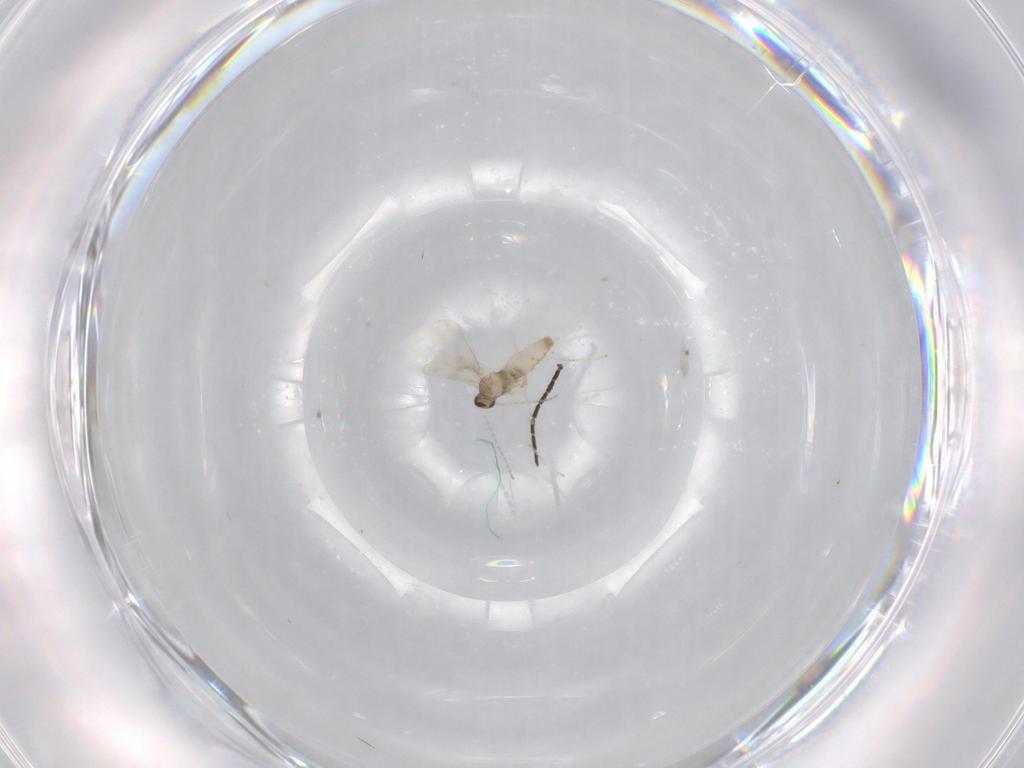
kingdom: Animalia
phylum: Arthropoda
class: Insecta
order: Diptera
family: Cecidomyiidae
